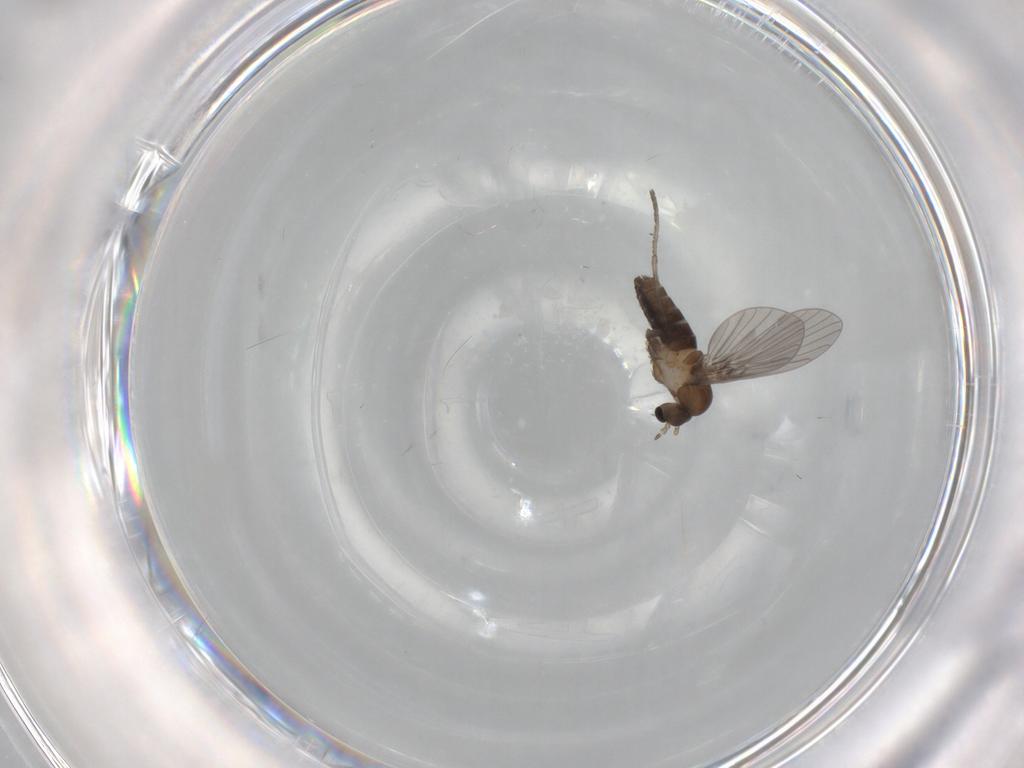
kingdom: Animalia
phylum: Arthropoda
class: Insecta
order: Diptera
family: Psychodidae
